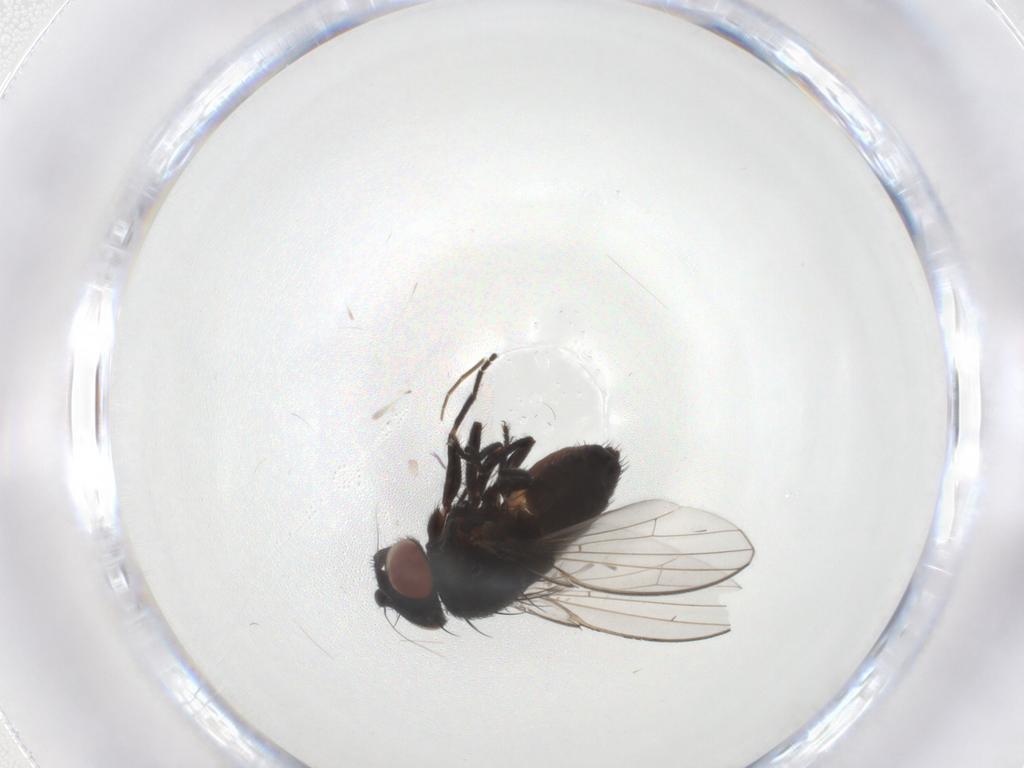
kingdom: Animalia
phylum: Arthropoda
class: Insecta
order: Diptera
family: Milichiidae
